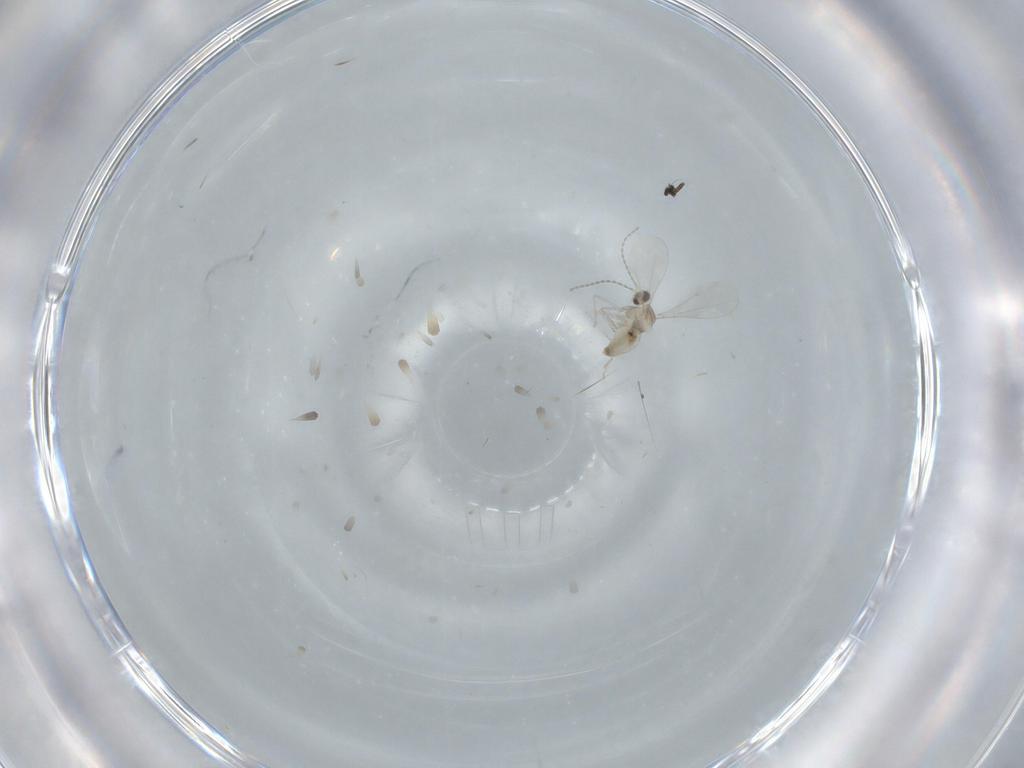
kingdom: Animalia
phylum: Arthropoda
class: Insecta
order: Diptera
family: Cecidomyiidae
